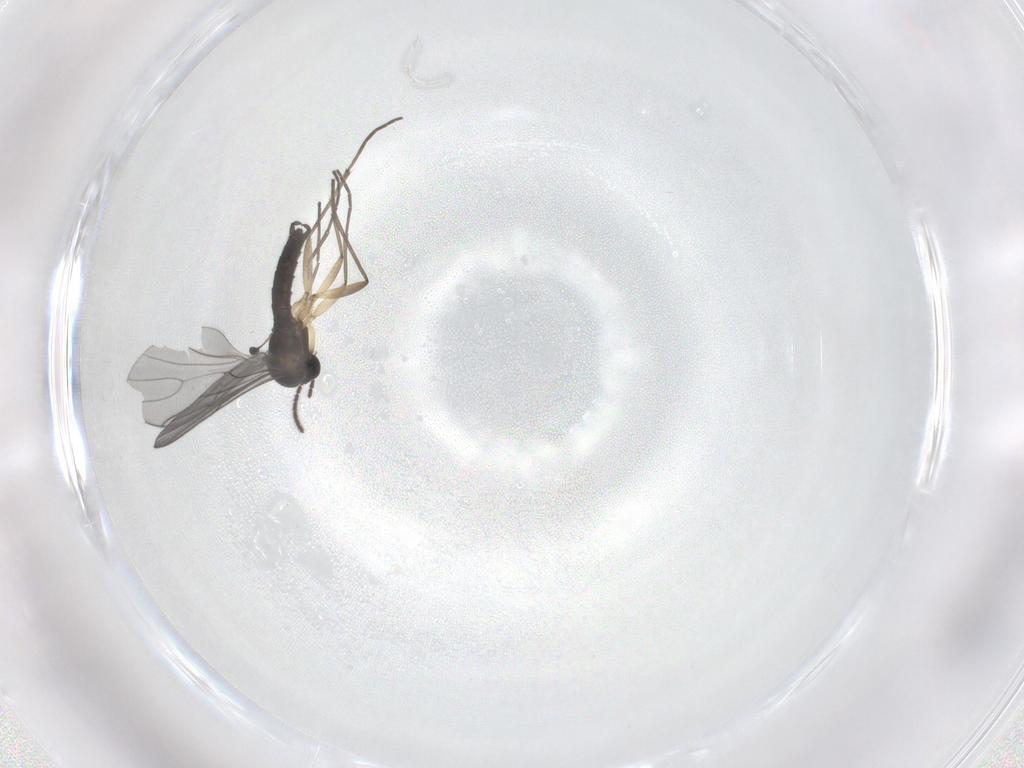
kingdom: Animalia
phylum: Arthropoda
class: Insecta
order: Diptera
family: Sciaridae
